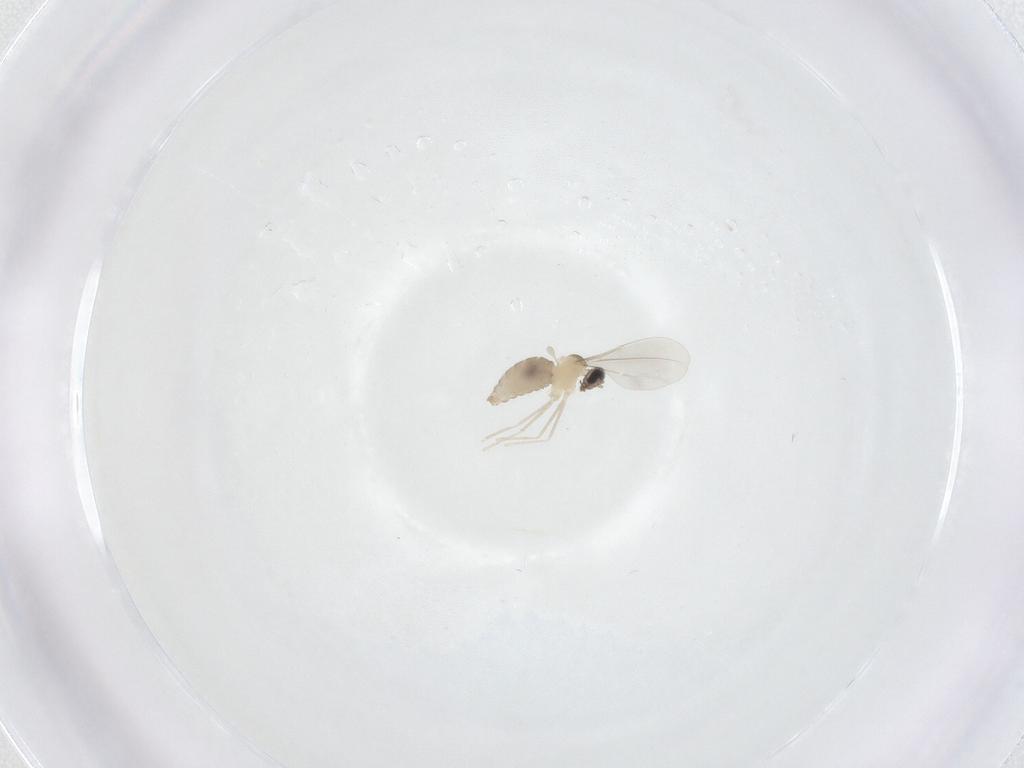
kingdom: Animalia
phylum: Arthropoda
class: Insecta
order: Diptera
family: Cecidomyiidae
